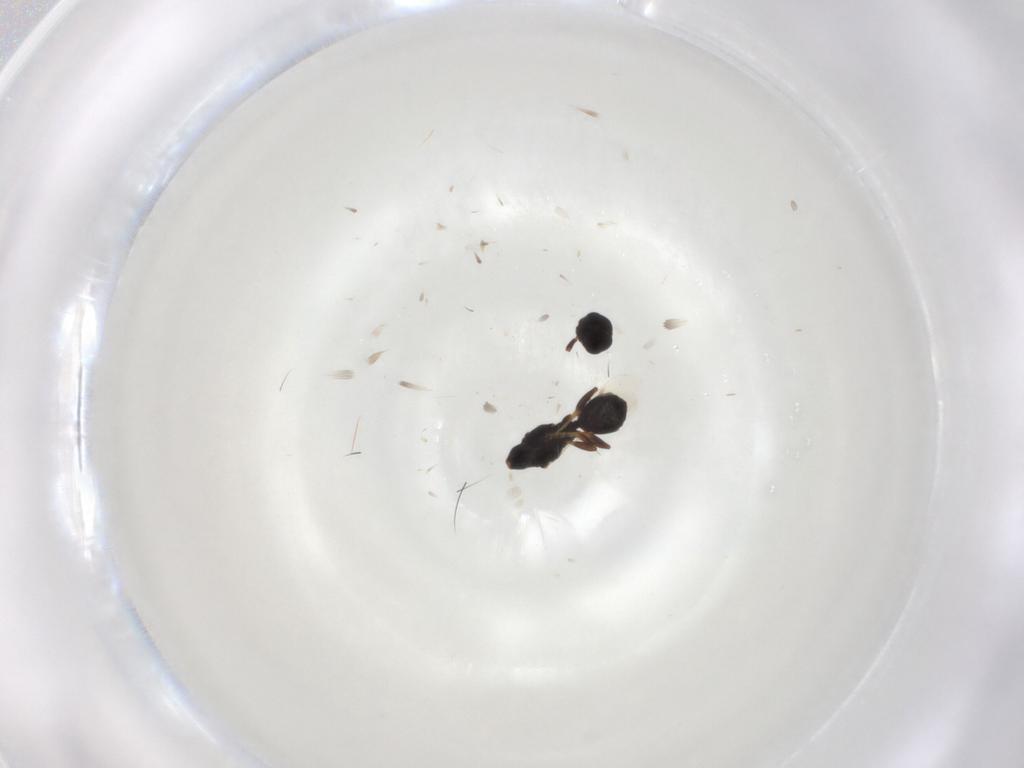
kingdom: Animalia
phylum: Arthropoda
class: Insecta
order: Hymenoptera
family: Bethylidae
